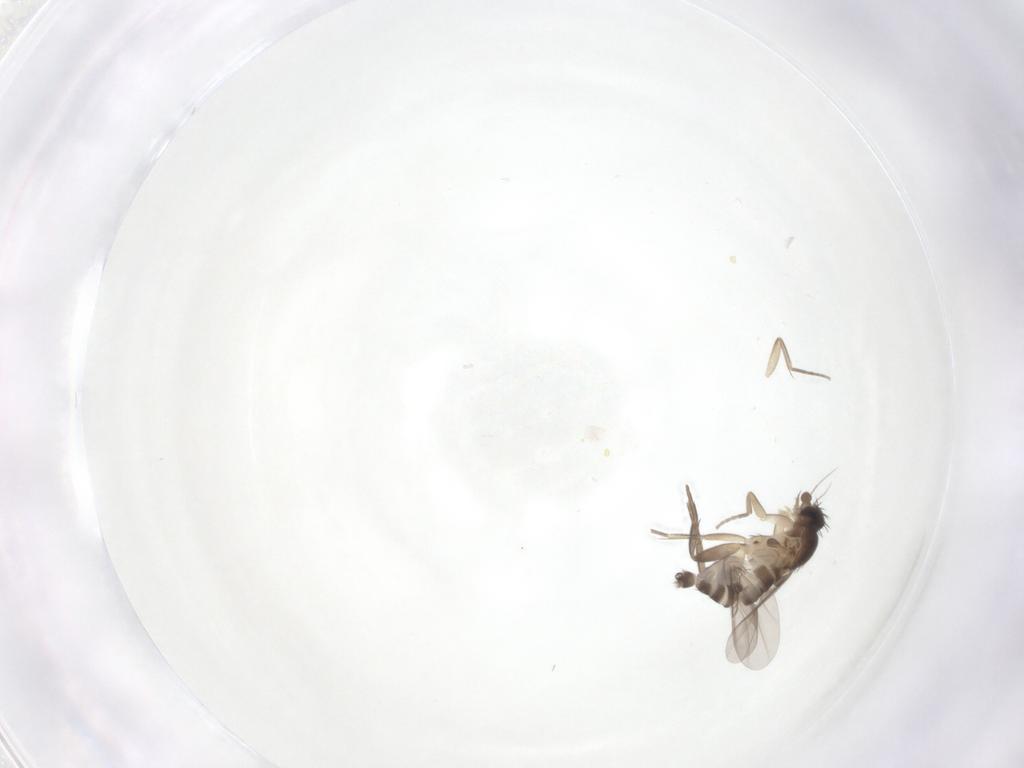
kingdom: Animalia
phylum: Arthropoda
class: Insecta
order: Diptera
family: Phoridae
